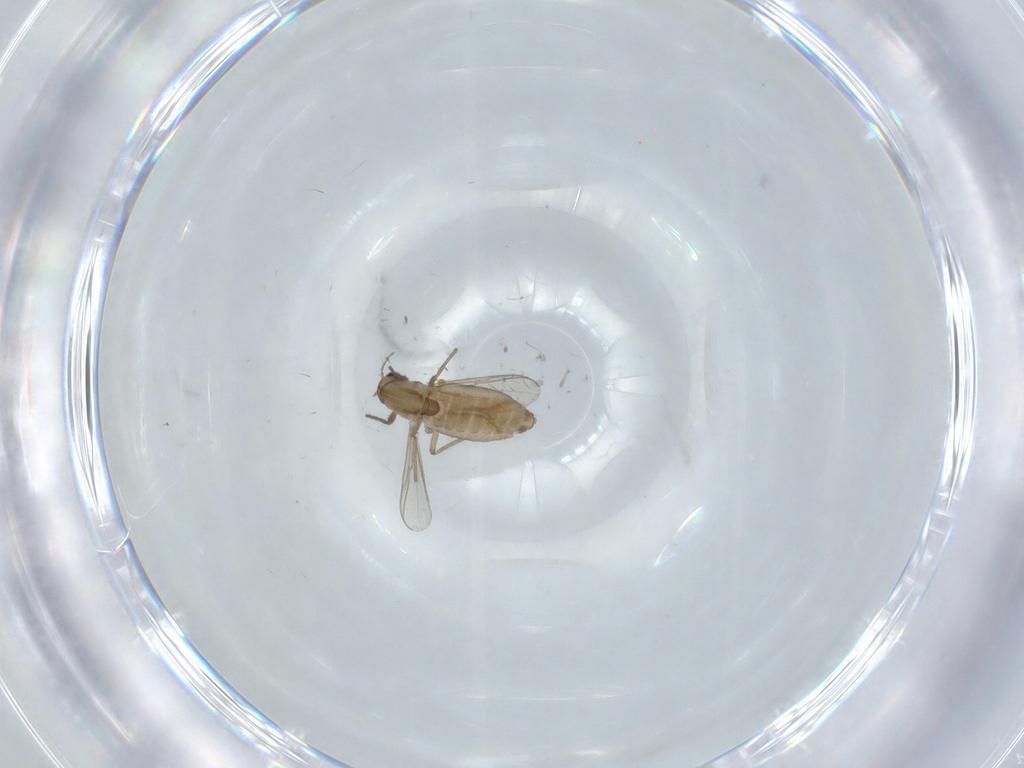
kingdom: Animalia
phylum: Arthropoda
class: Insecta
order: Diptera
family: Chironomidae
